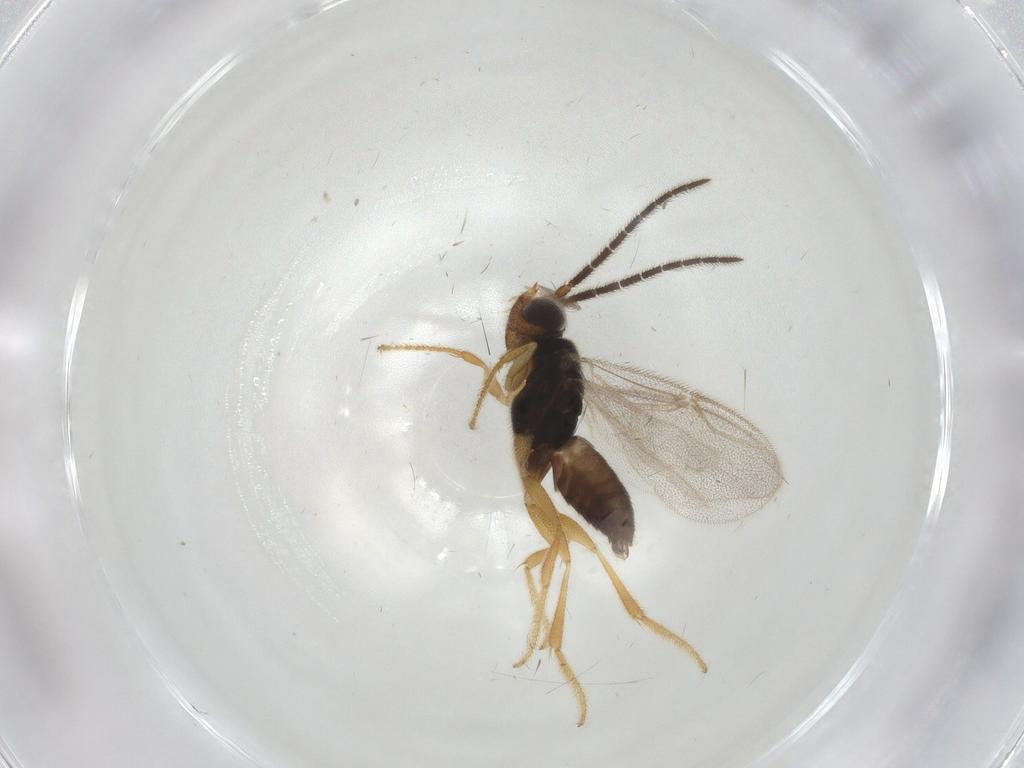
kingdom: Animalia
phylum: Arthropoda
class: Insecta
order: Hymenoptera
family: Dryinidae
